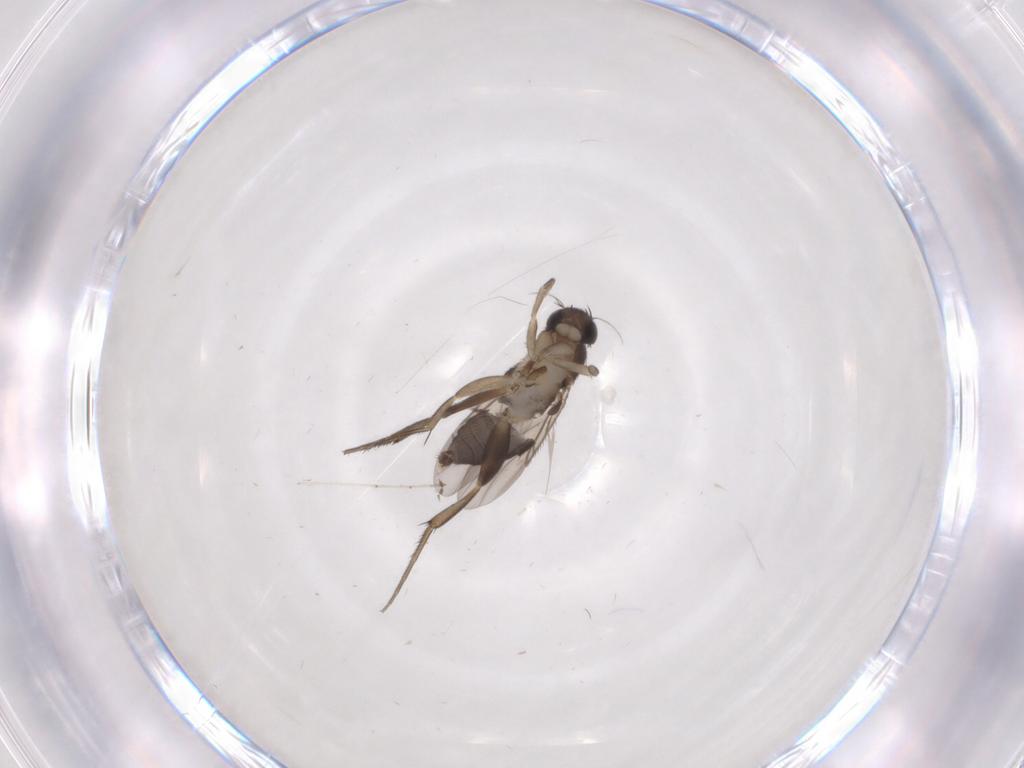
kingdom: Animalia
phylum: Arthropoda
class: Insecta
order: Diptera
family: Phoridae
